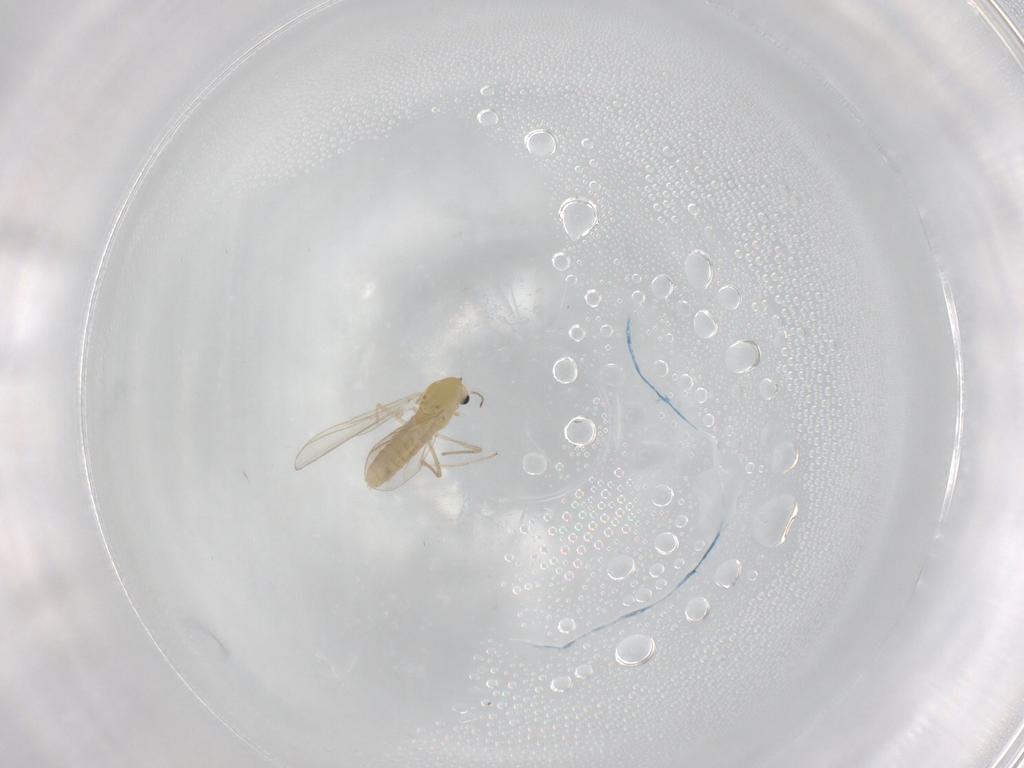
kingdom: Animalia
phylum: Arthropoda
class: Insecta
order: Diptera
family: Chironomidae
